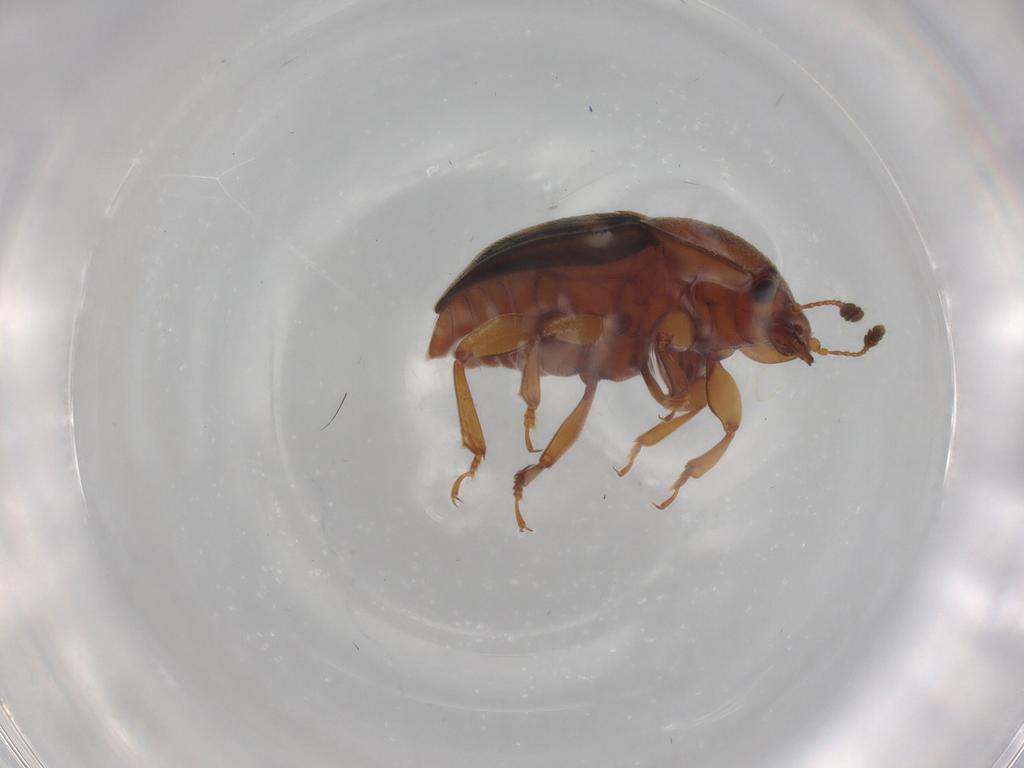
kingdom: Animalia
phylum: Arthropoda
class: Insecta
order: Coleoptera
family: Nitidulidae
